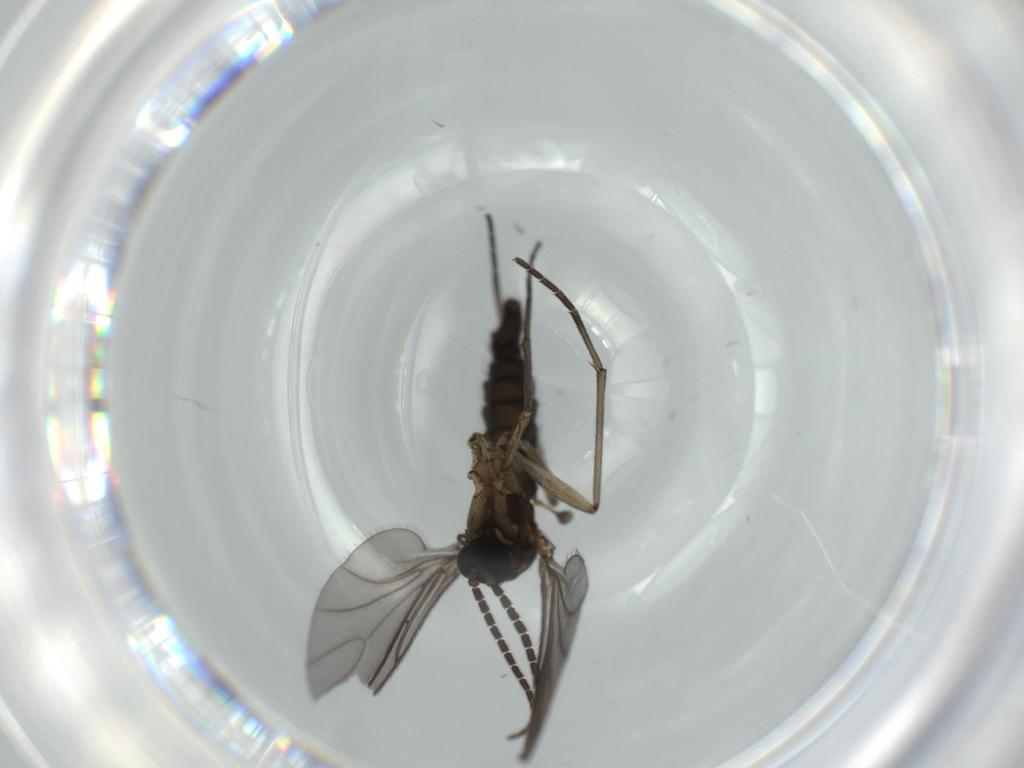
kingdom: Animalia
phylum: Arthropoda
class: Insecta
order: Diptera
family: Sciaridae
